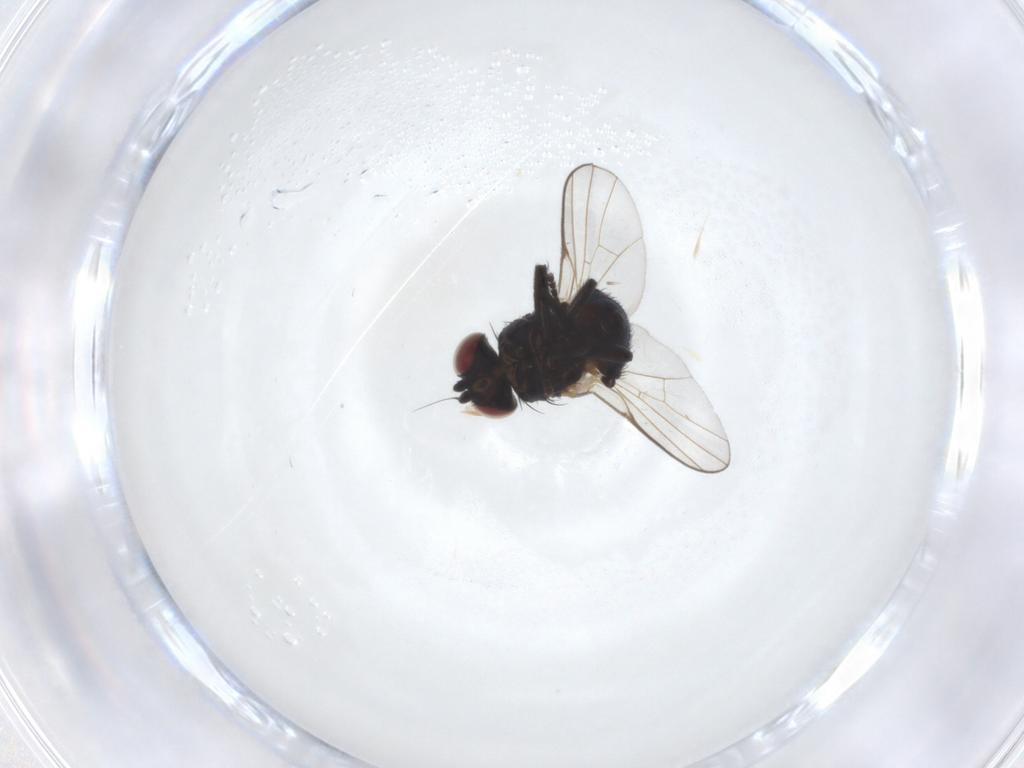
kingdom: Animalia
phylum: Arthropoda
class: Insecta
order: Diptera
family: Agromyzidae
